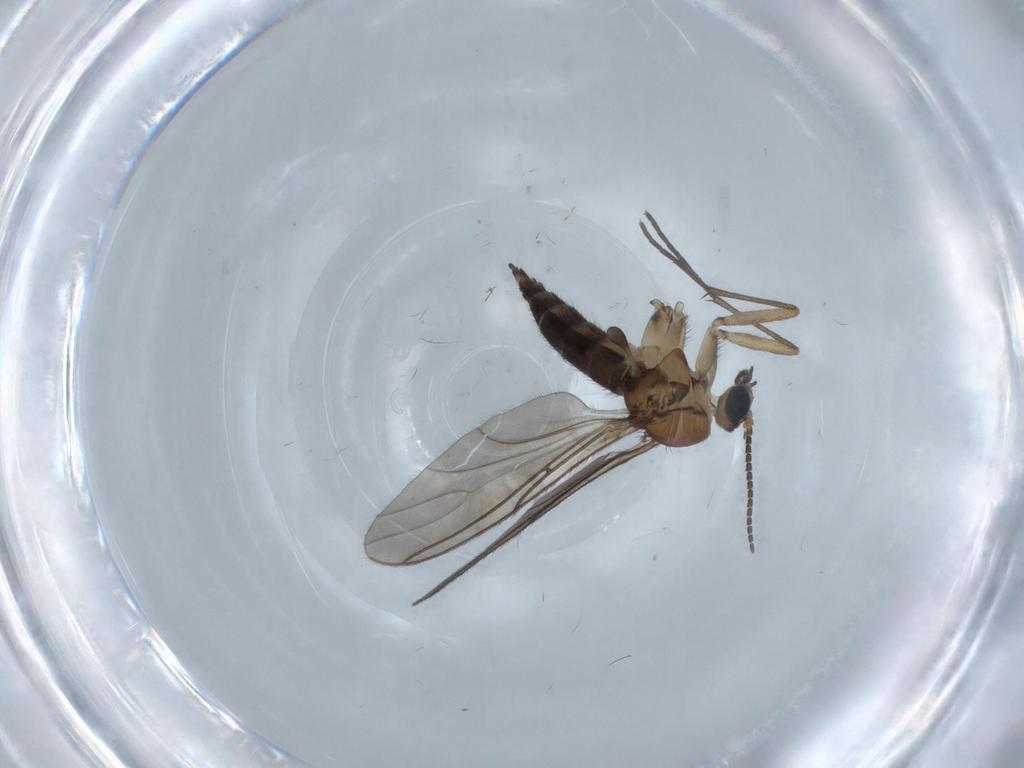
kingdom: Animalia
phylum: Arthropoda
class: Insecta
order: Diptera
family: Sciaridae
